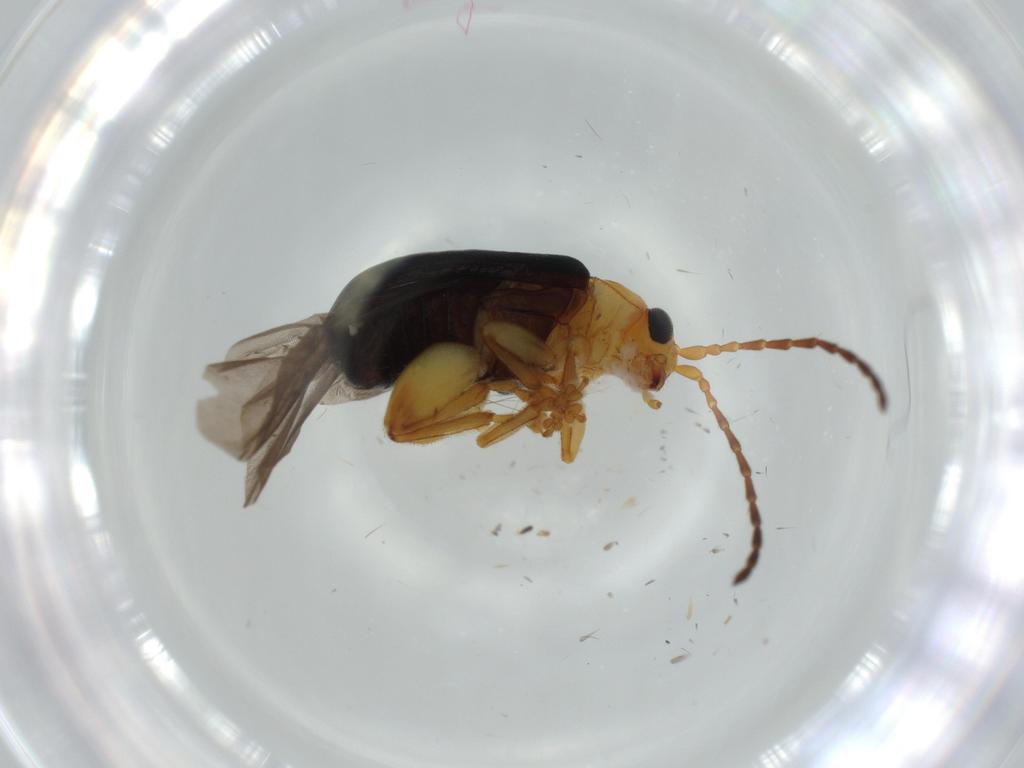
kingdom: Animalia
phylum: Arthropoda
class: Insecta
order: Coleoptera
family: Chrysomelidae
